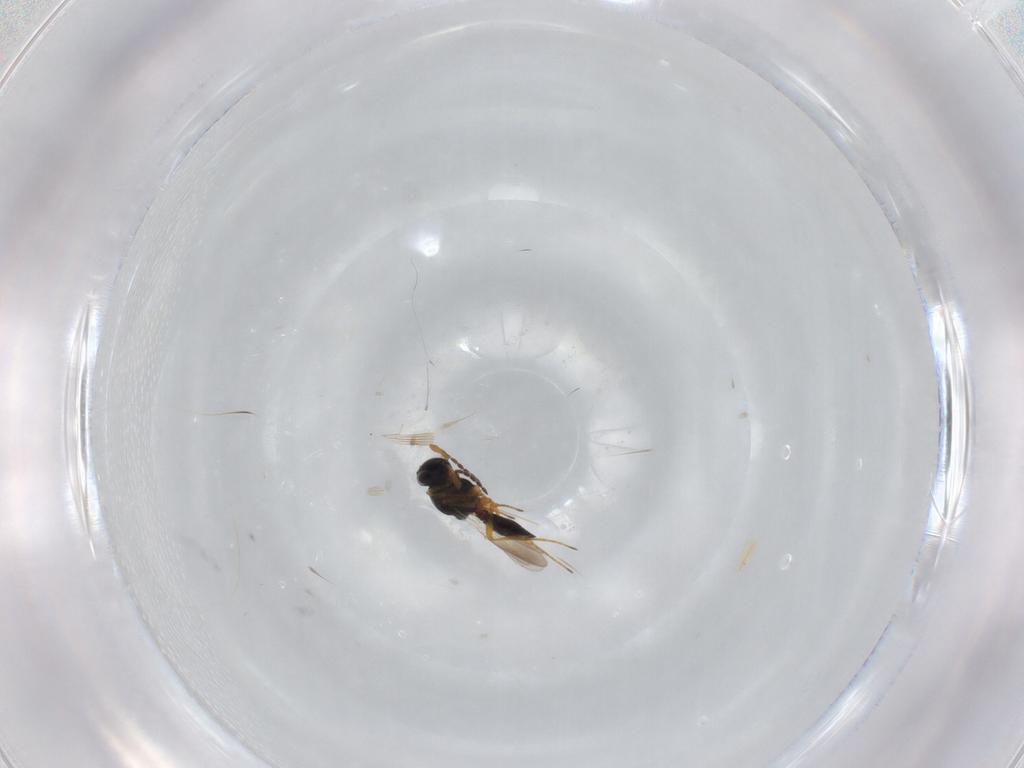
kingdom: Animalia
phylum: Arthropoda
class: Insecta
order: Hymenoptera
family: Platygastridae
